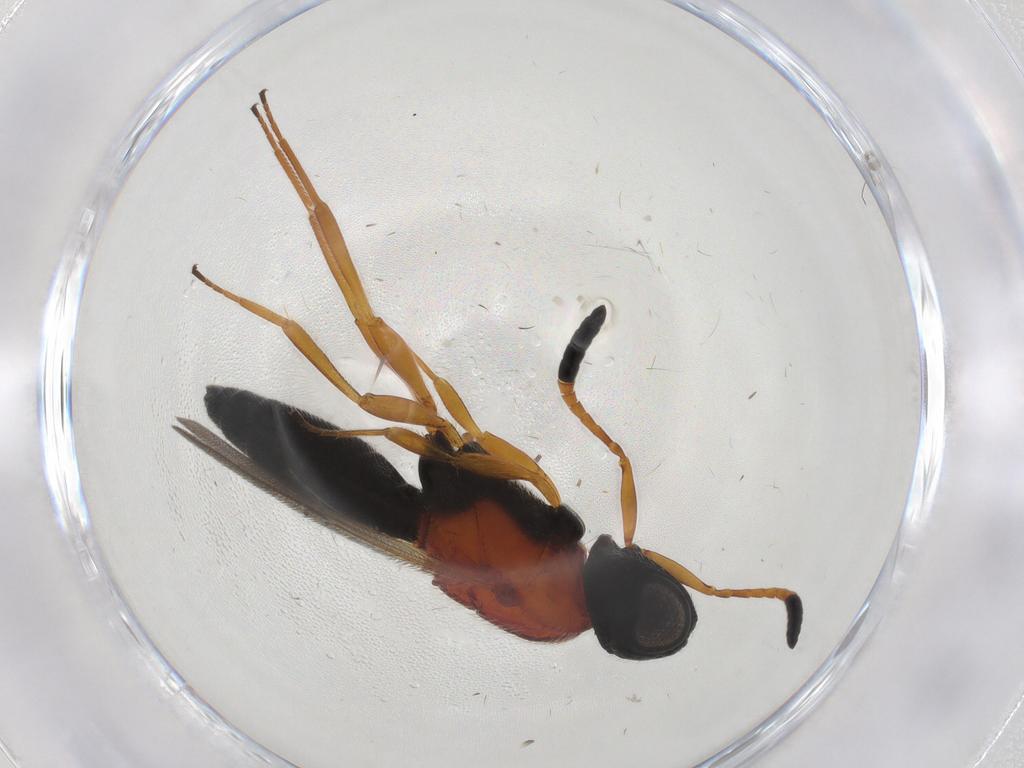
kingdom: Animalia
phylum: Arthropoda
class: Insecta
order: Hymenoptera
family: Scelionidae
